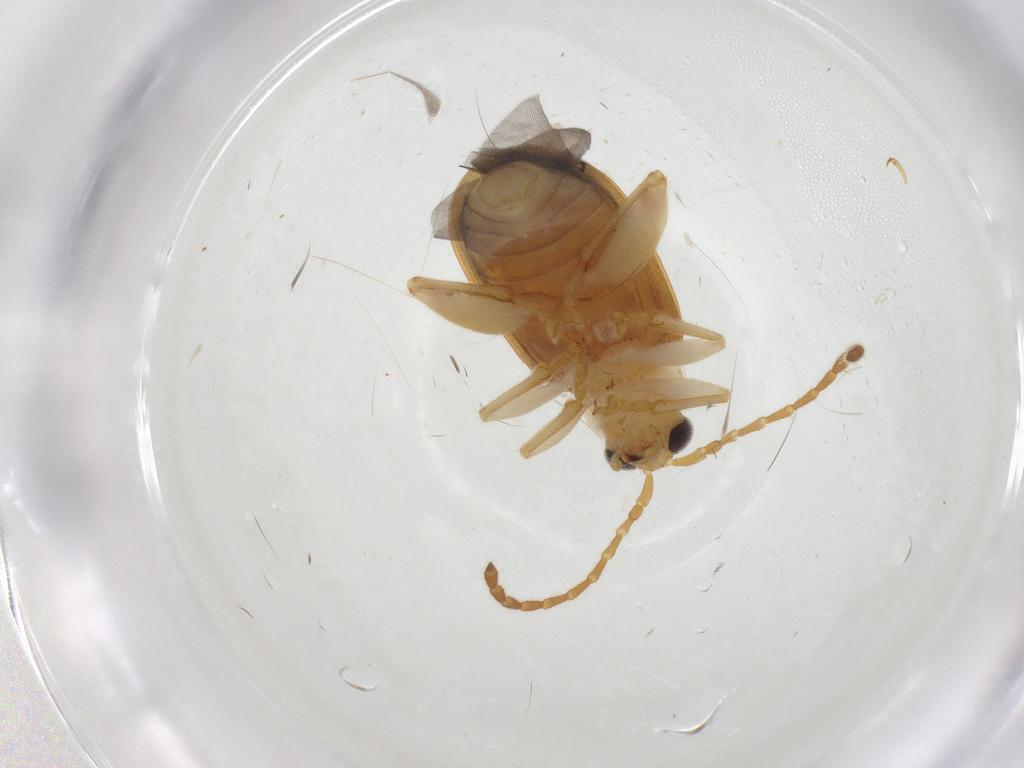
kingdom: Animalia
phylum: Arthropoda
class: Insecta
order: Coleoptera
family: Chrysomelidae
